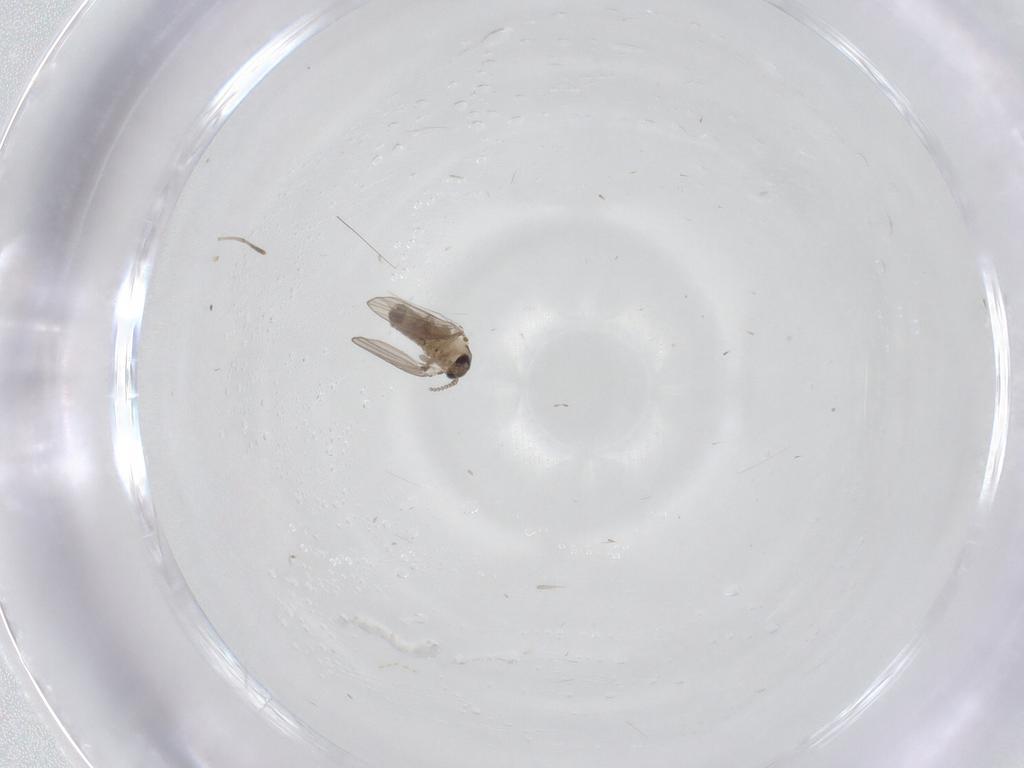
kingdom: Animalia
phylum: Arthropoda
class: Insecta
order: Diptera
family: Psychodidae
